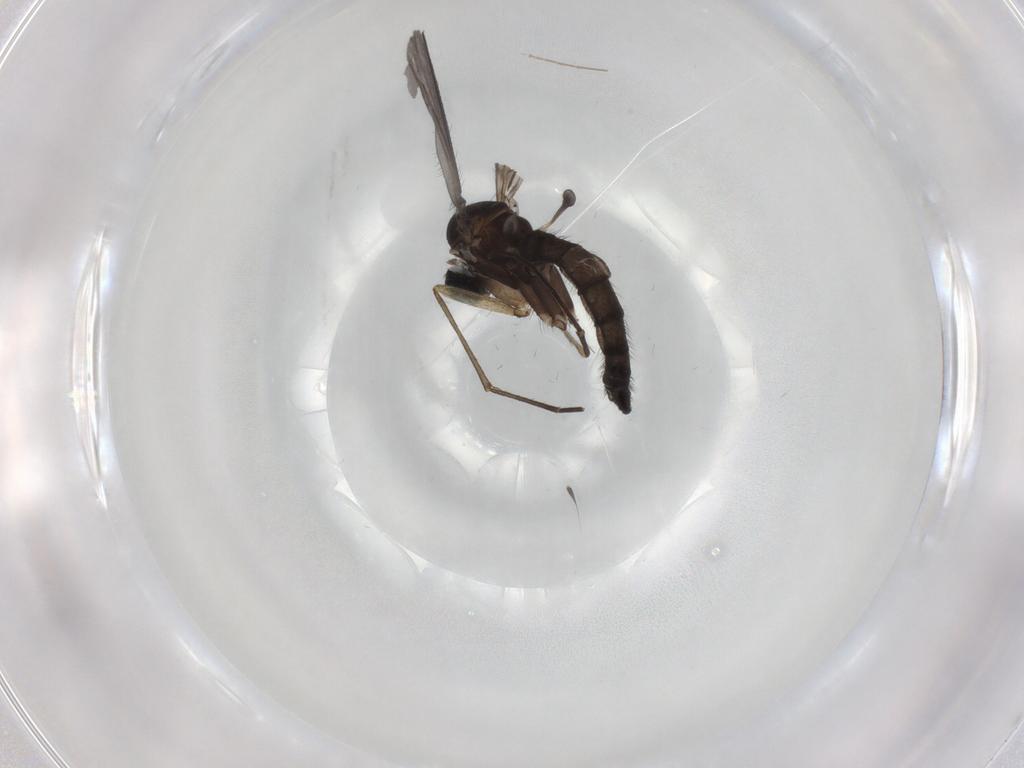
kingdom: Animalia
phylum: Arthropoda
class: Insecta
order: Diptera
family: Sciaridae
